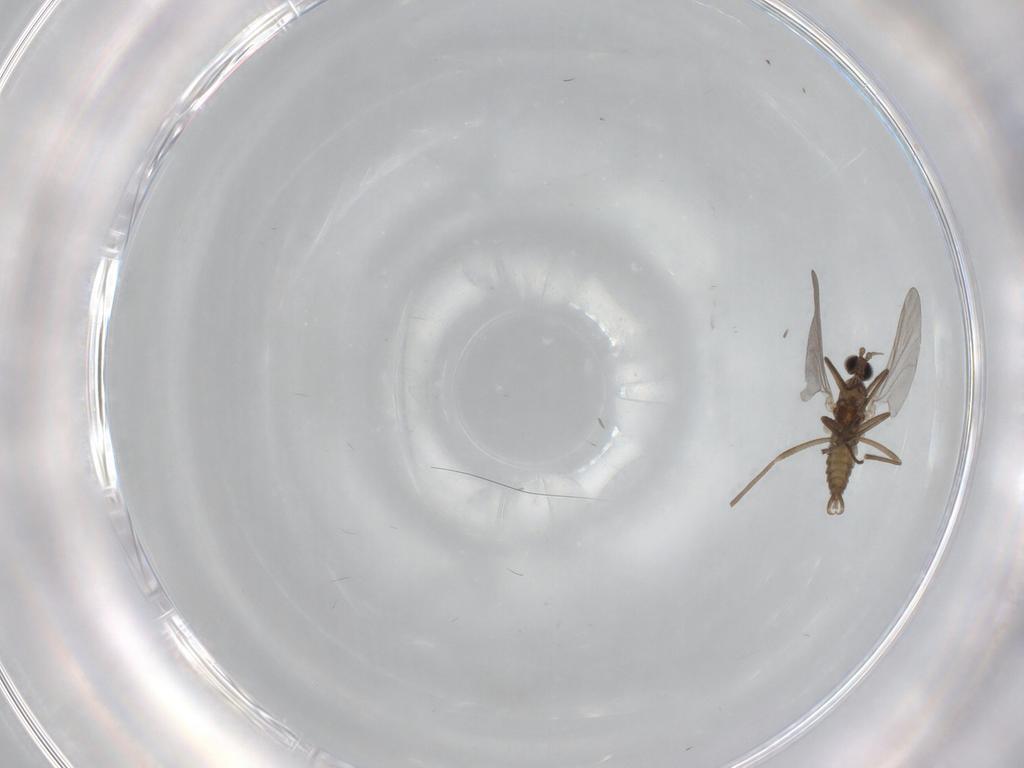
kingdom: Animalia
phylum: Arthropoda
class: Insecta
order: Diptera
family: Cecidomyiidae
